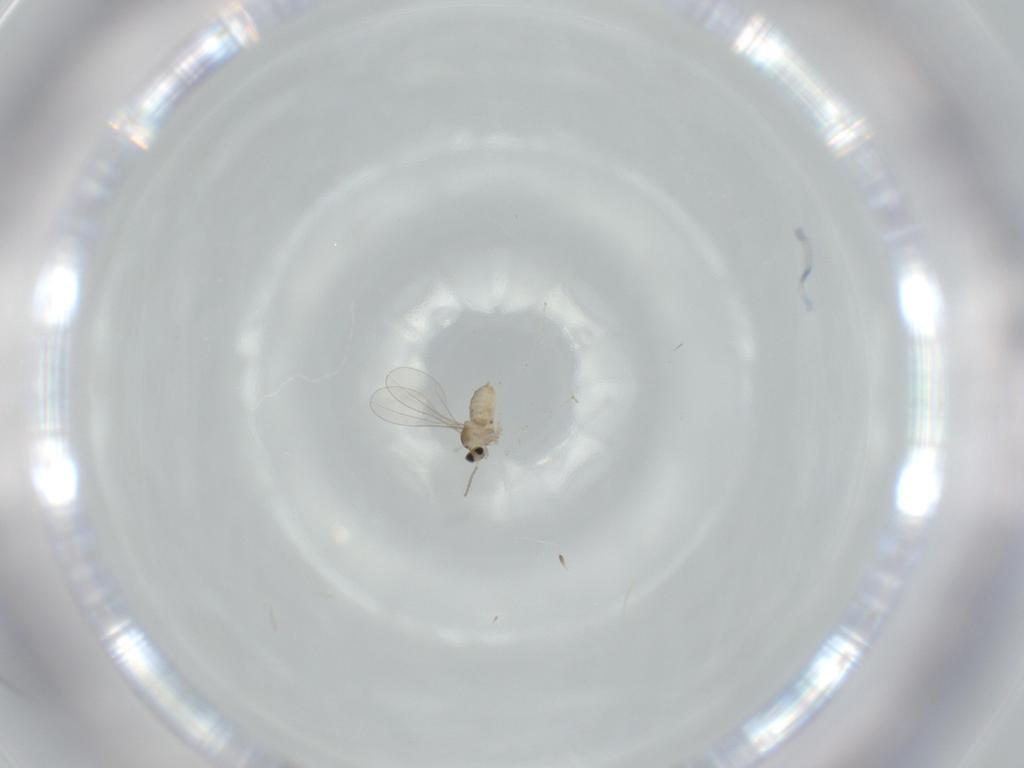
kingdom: Animalia
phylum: Arthropoda
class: Insecta
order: Diptera
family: Cecidomyiidae
